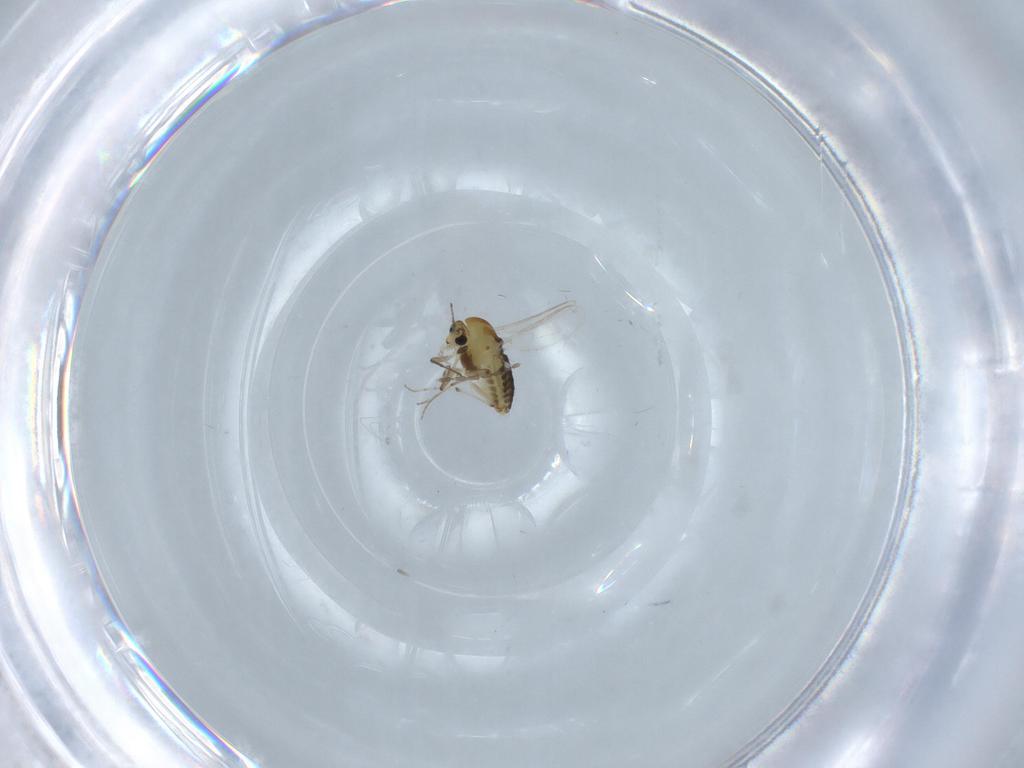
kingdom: Animalia
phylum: Arthropoda
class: Insecta
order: Diptera
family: Chironomidae
